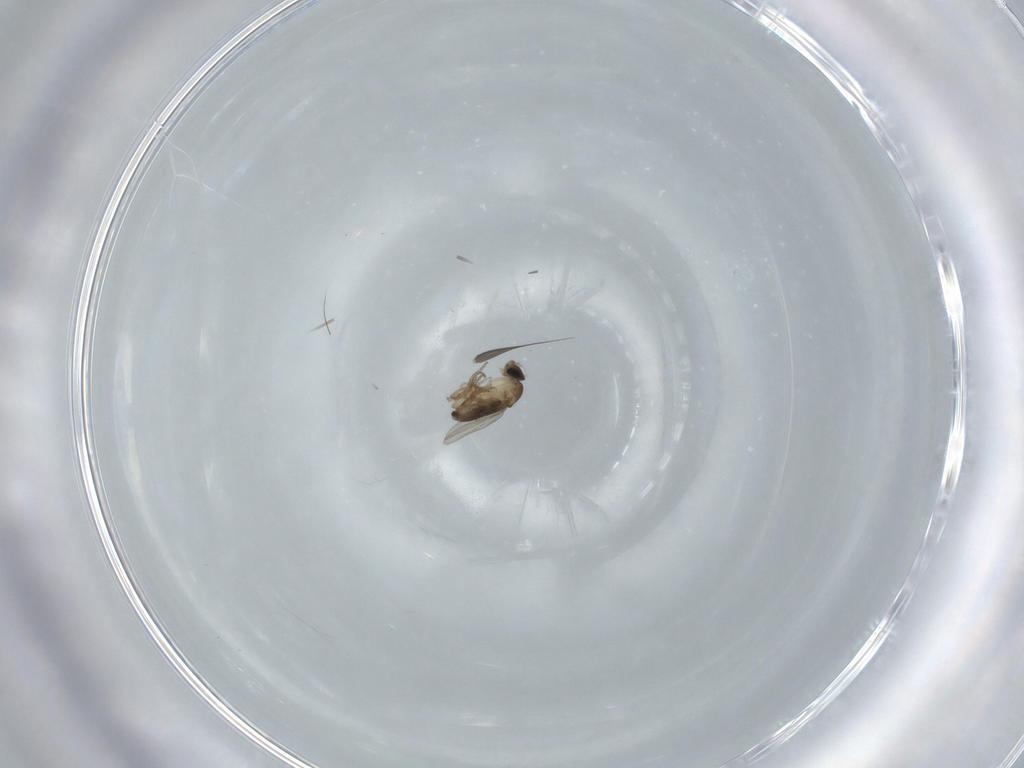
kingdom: Animalia
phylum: Arthropoda
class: Insecta
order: Diptera
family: Phoridae
